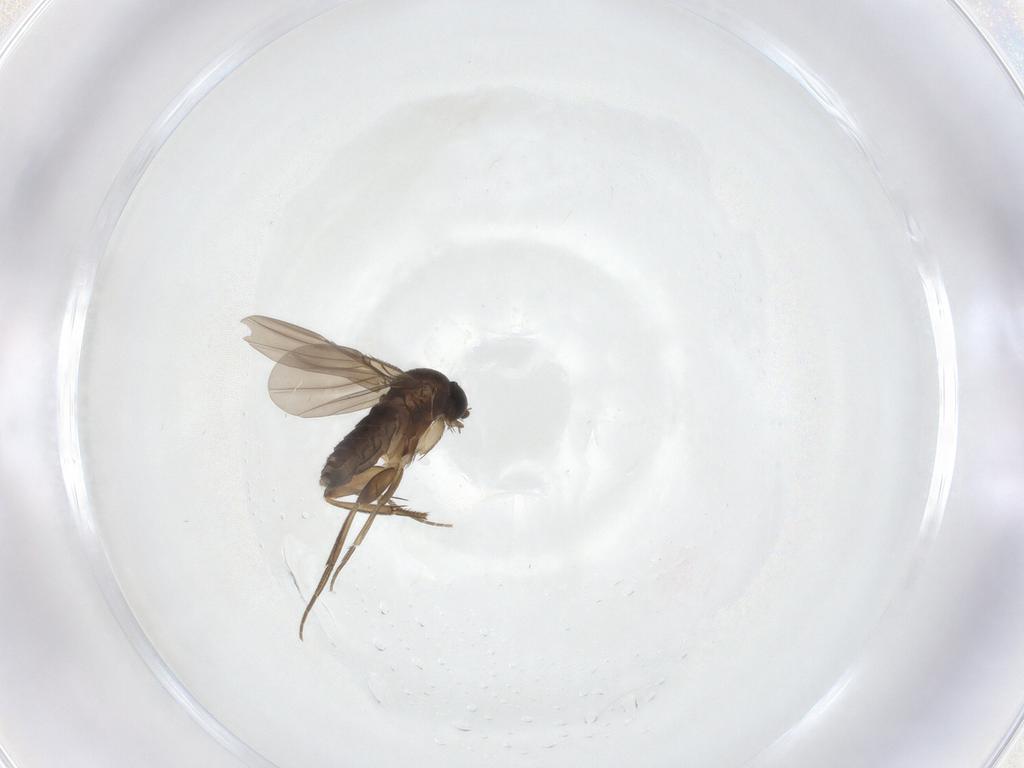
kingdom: Animalia
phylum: Arthropoda
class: Insecta
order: Diptera
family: Phoridae
